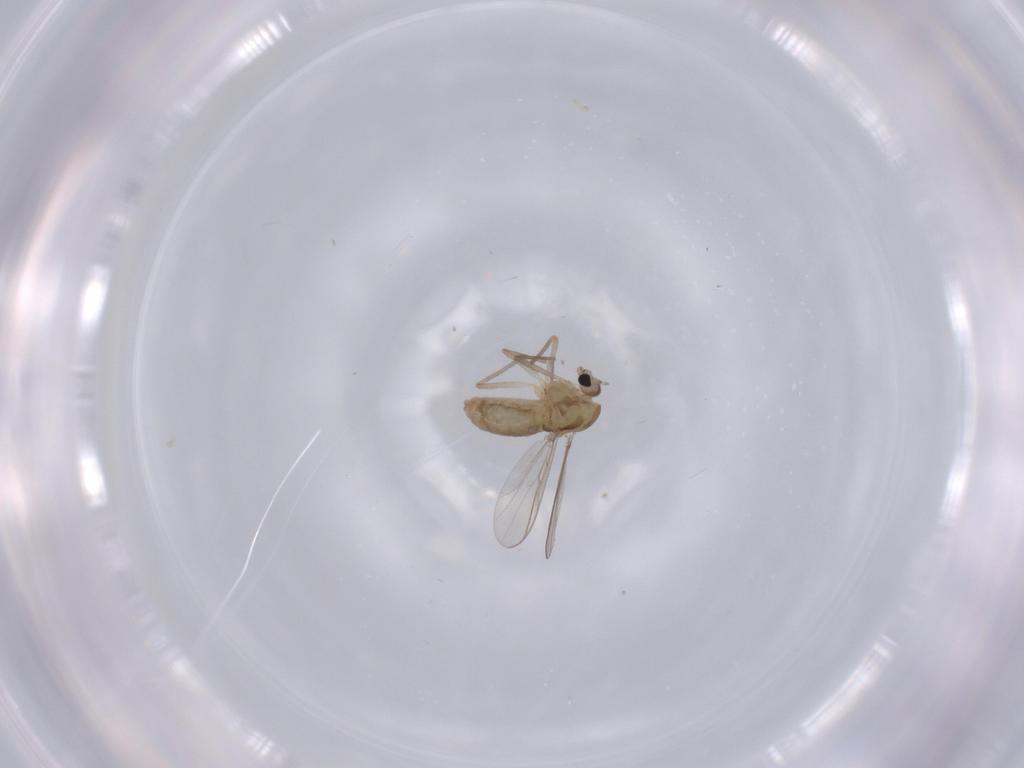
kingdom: Animalia
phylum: Arthropoda
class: Insecta
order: Diptera
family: Chironomidae
